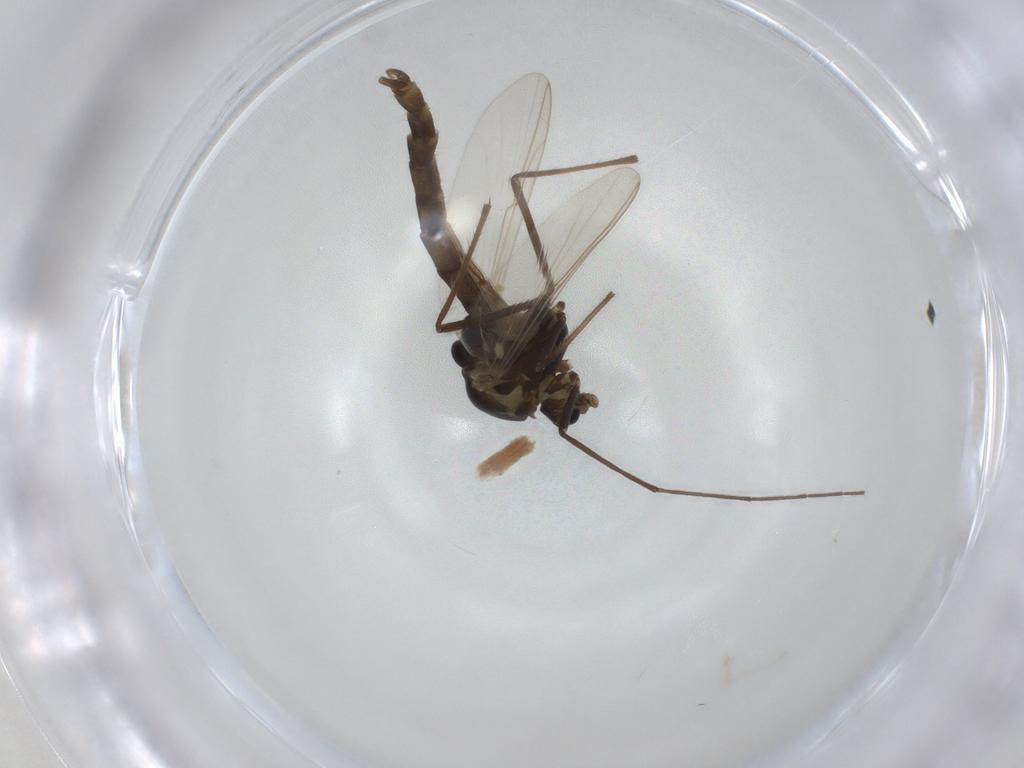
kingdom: Animalia
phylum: Arthropoda
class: Insecta
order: Diptera
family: Chironomidae
